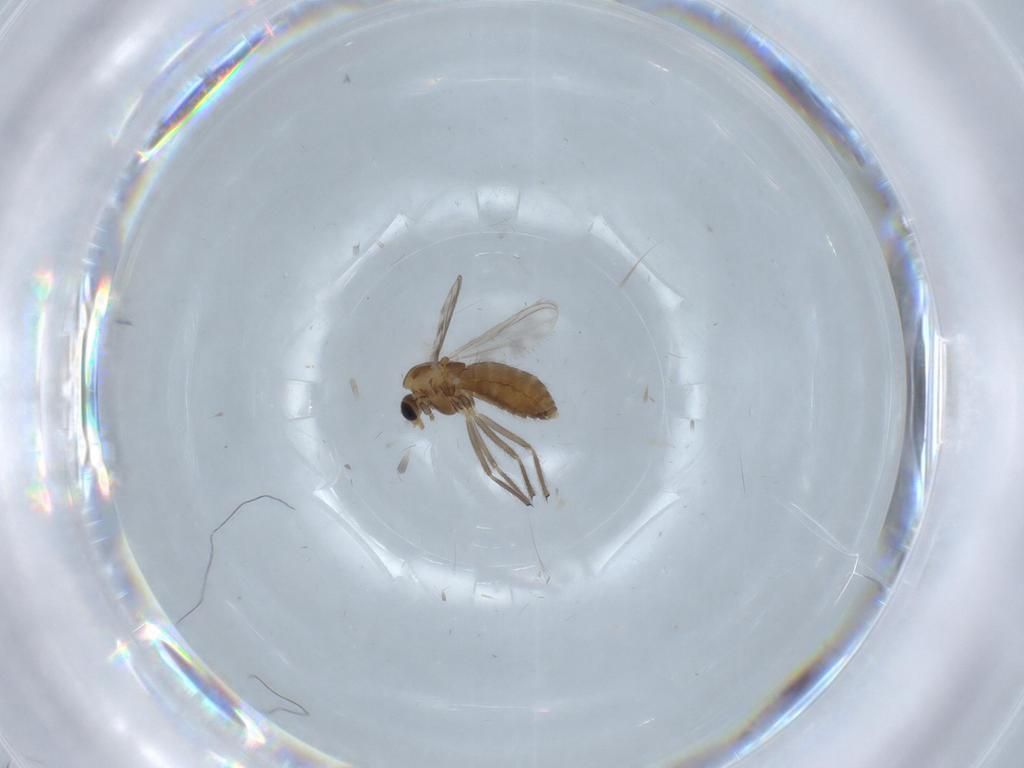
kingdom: Animalia
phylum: Arthropoda
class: Insecta
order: Diptera
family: Chironomidae
